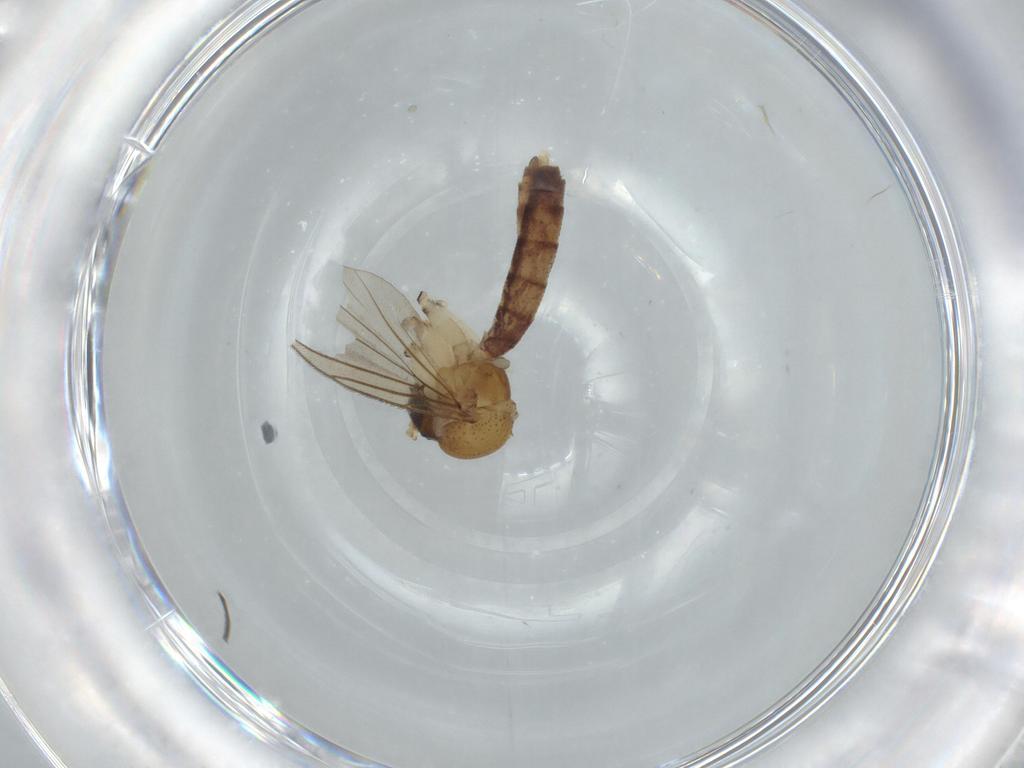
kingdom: Animalia
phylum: Arthropoda
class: Insecta
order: Diptera
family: Mycetophilidae
